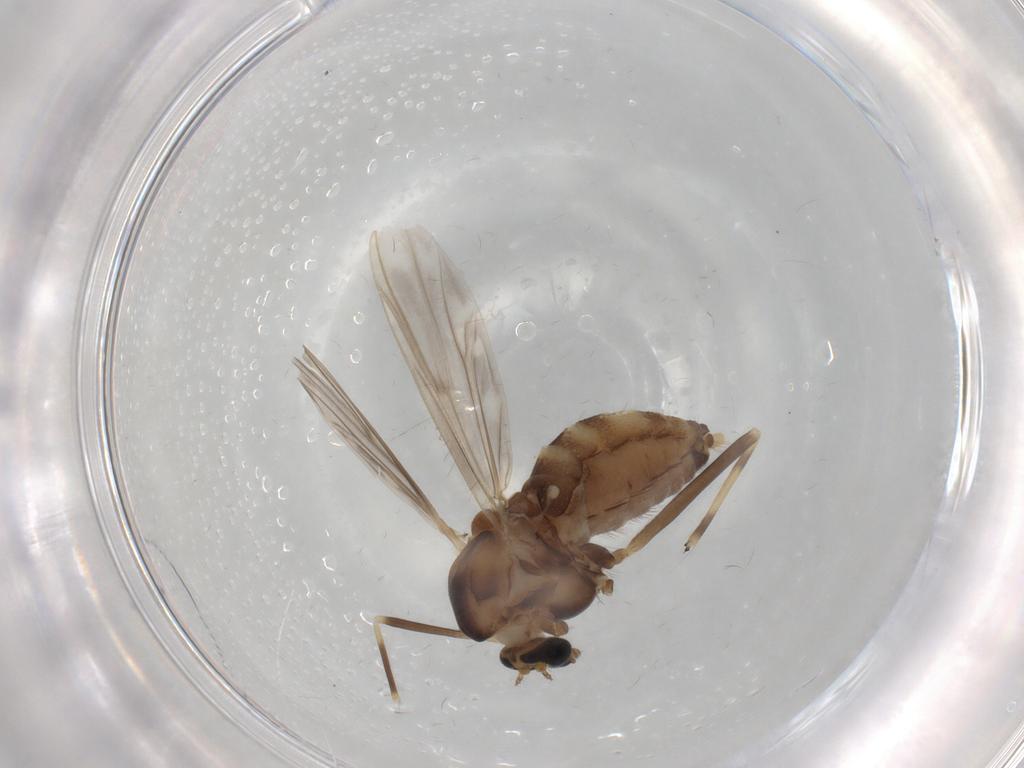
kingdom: Animalia
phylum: Arthropoda
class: Insecta
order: Diptera
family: Chironomidae
